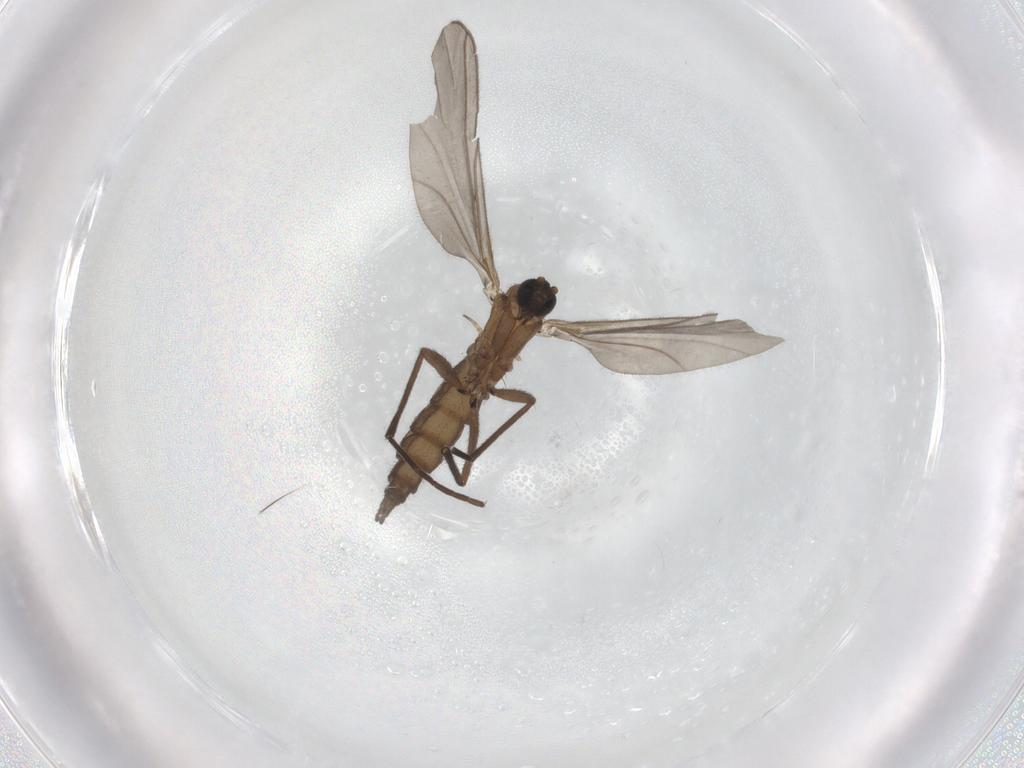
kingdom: Animalia
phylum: Arthropoda
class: Insecta
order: Diptera
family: Sciaridae
